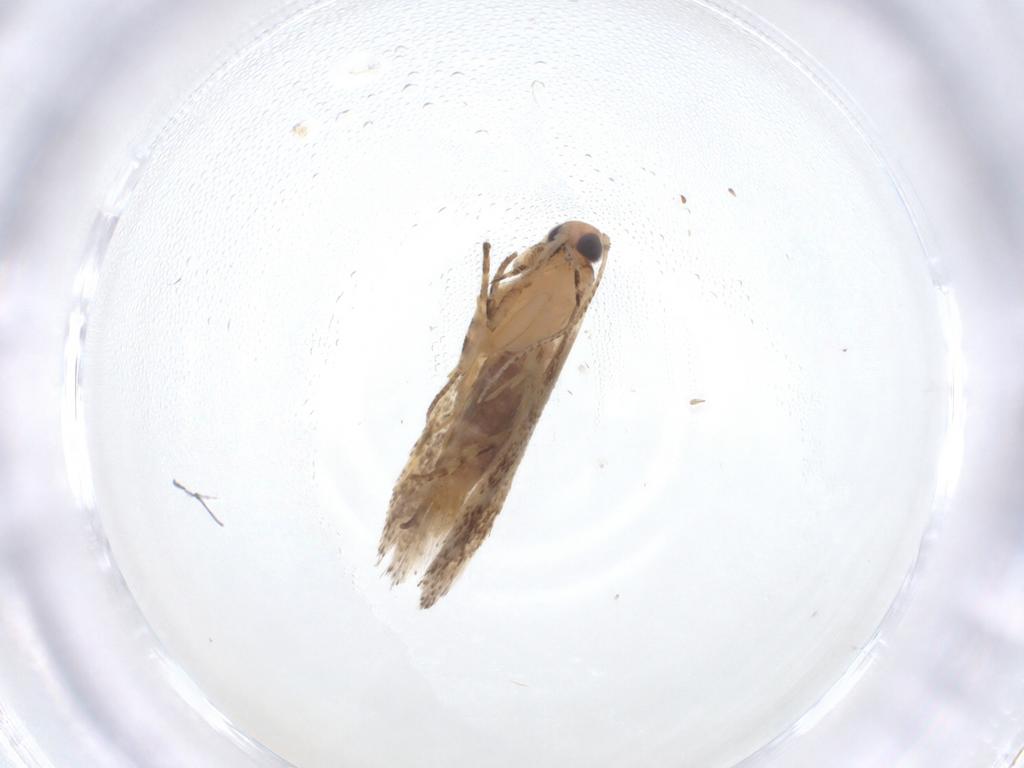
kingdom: Animalia
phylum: Arthropoda
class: Insecta
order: Lepidoptera
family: Gelechiidae
